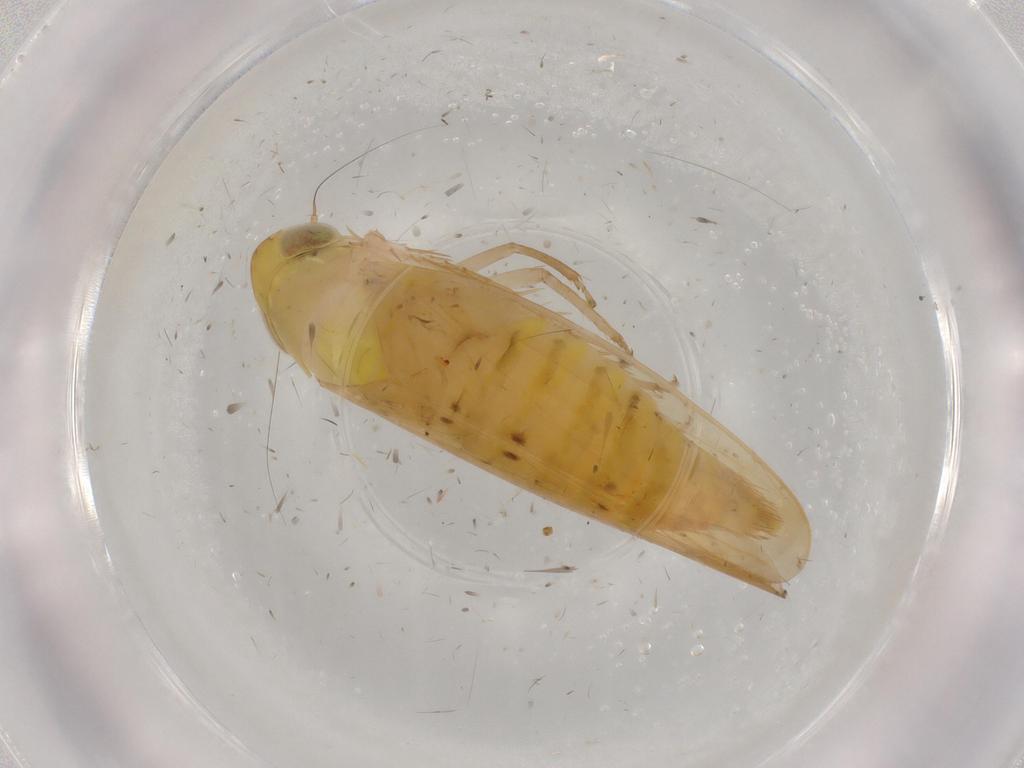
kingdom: Animalia
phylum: Arthropoda
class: Insecta
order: Hemiptera
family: Cicadellidae
